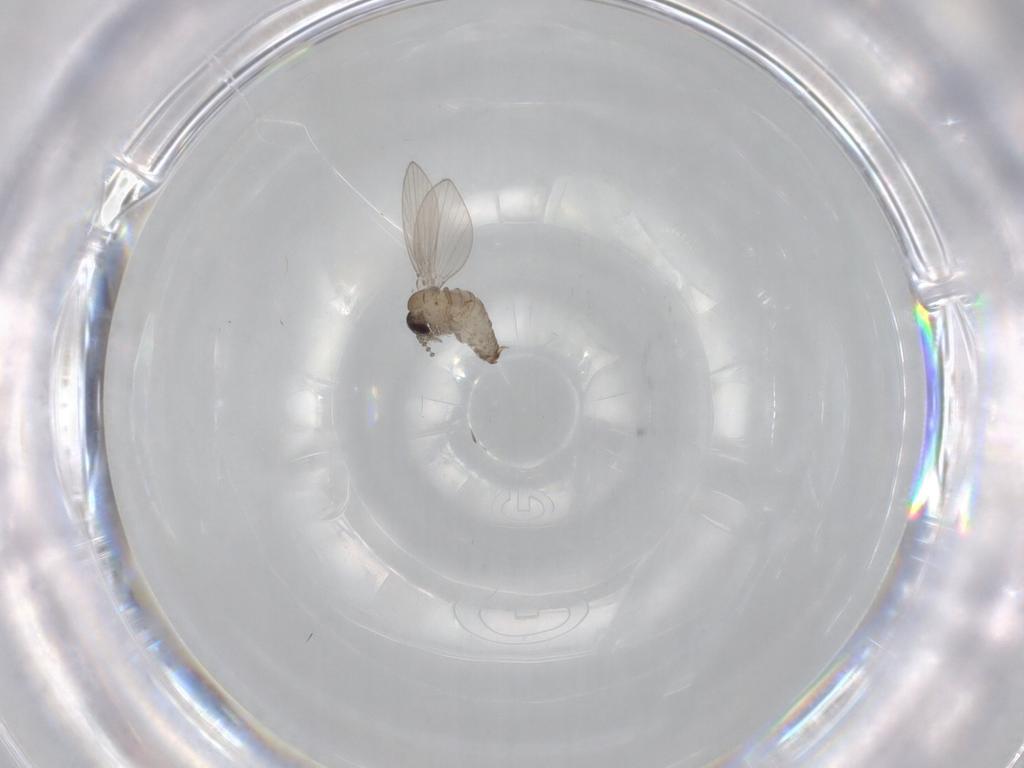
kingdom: Animalia
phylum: Arthropoda
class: Insecta
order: Diptera
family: Psychodidae
